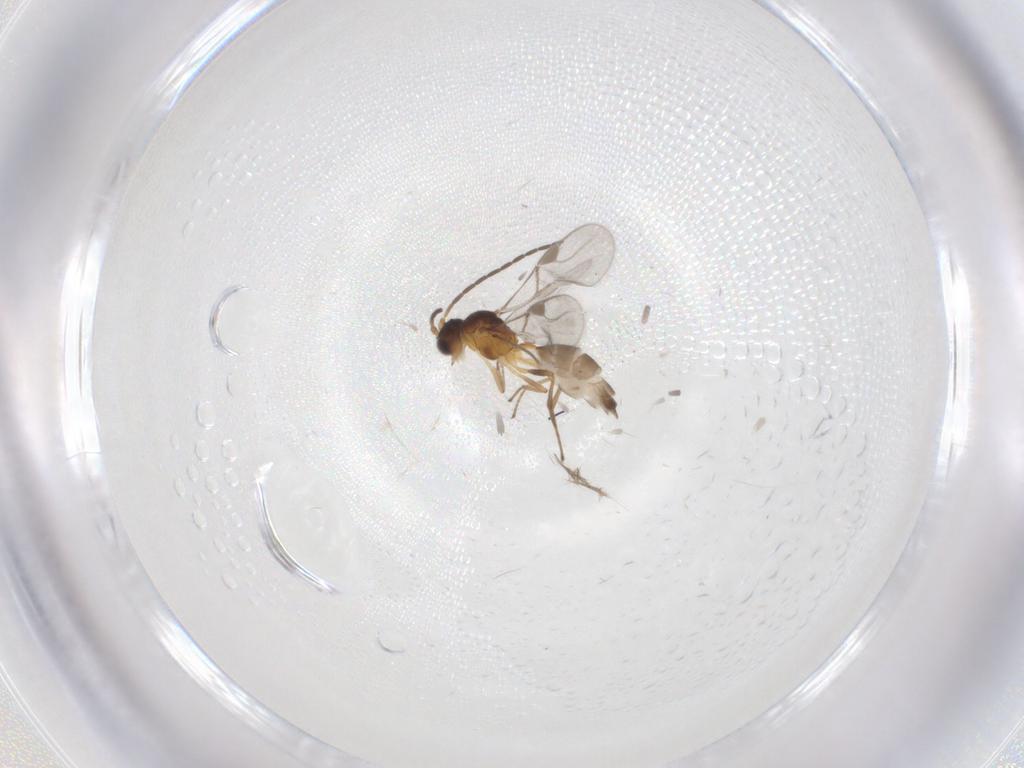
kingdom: Animalia
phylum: Arthropoda
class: Insecta
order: Hymenoptera
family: Braconidae
